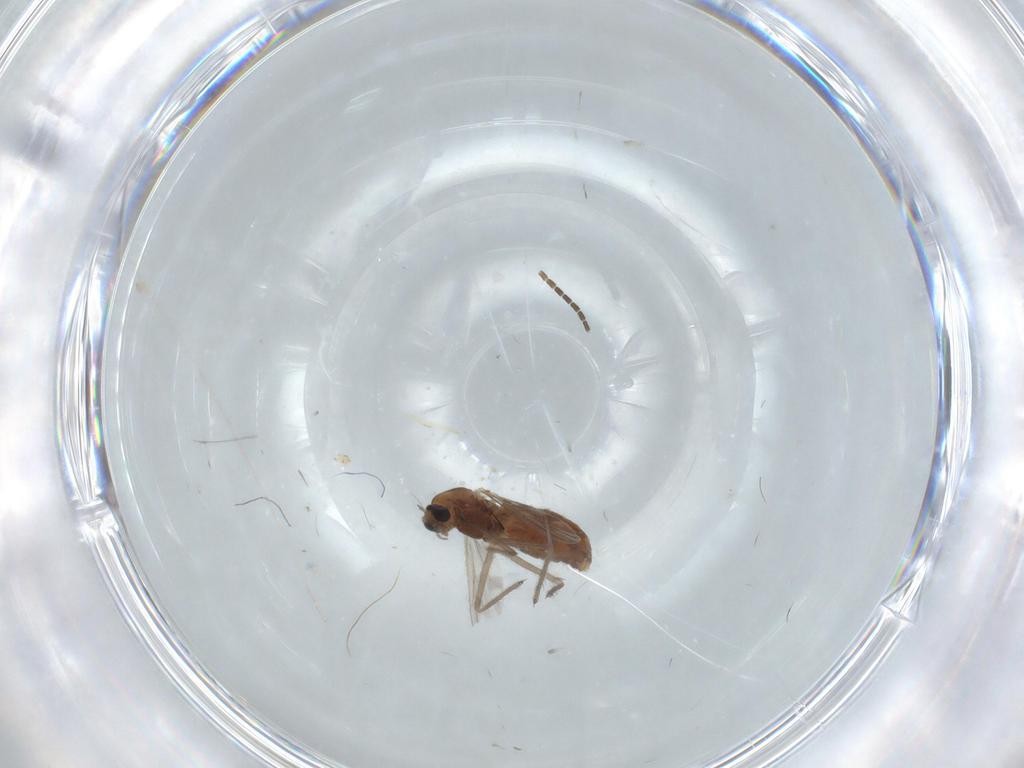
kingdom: Animalia
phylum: Arthropoda
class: Insecta
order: Diptera
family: Chironomidae
